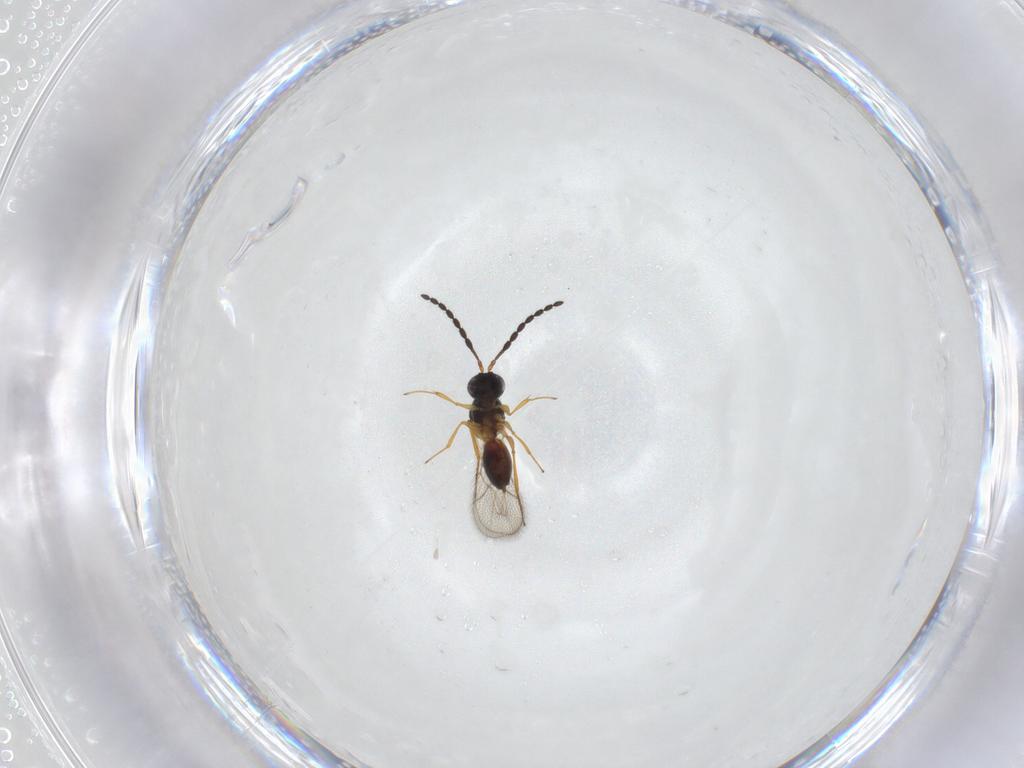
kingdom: Animalia
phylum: Arthropoda
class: Insecta
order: Hymenoptera
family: Figitidae
